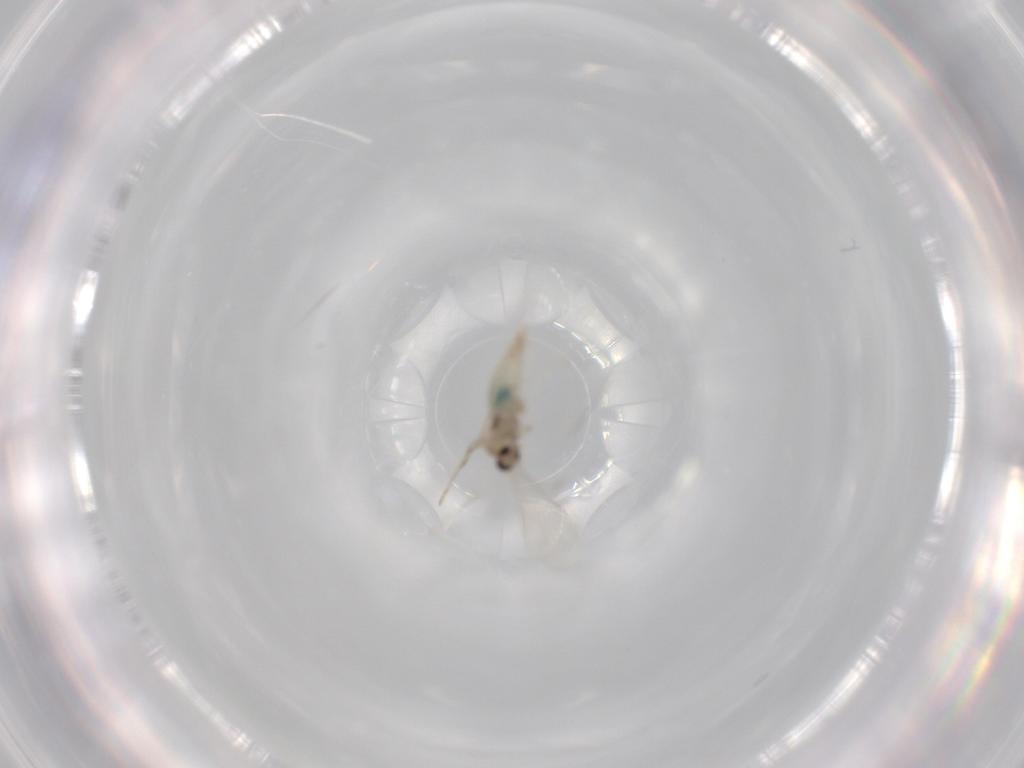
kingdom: Animalia
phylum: Arthropoda
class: Insecta
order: Diptera
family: Cecidomyiidae
